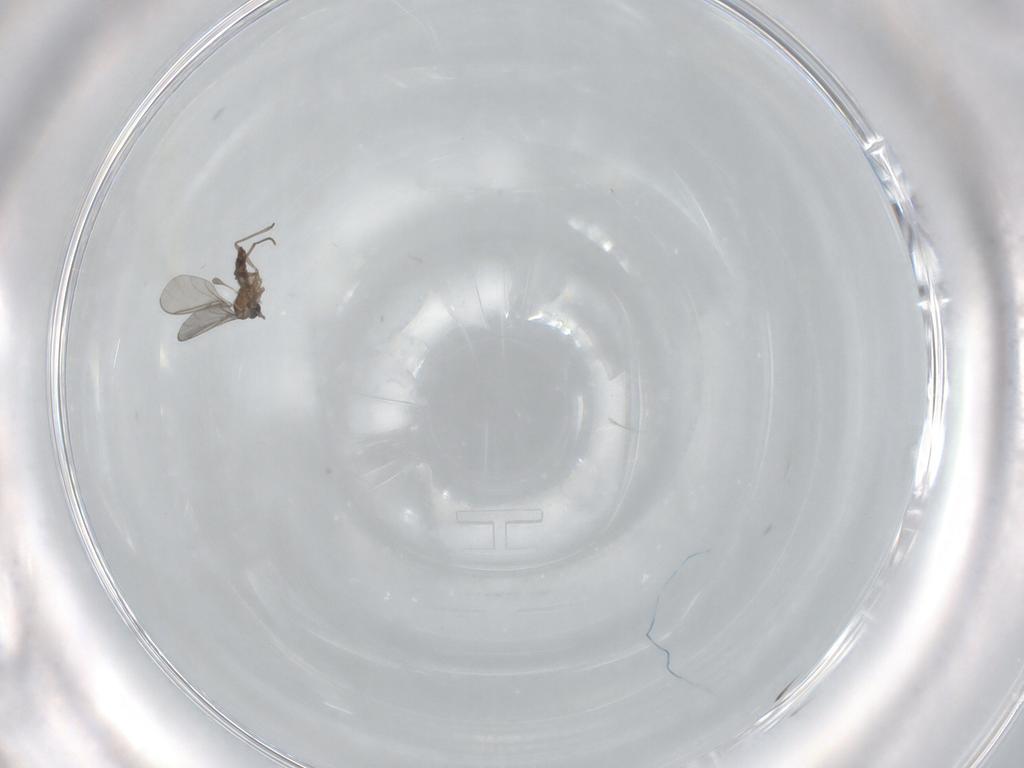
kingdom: Animalia
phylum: Arthropoda
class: Insecta
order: Diptera
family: Sciaridae
